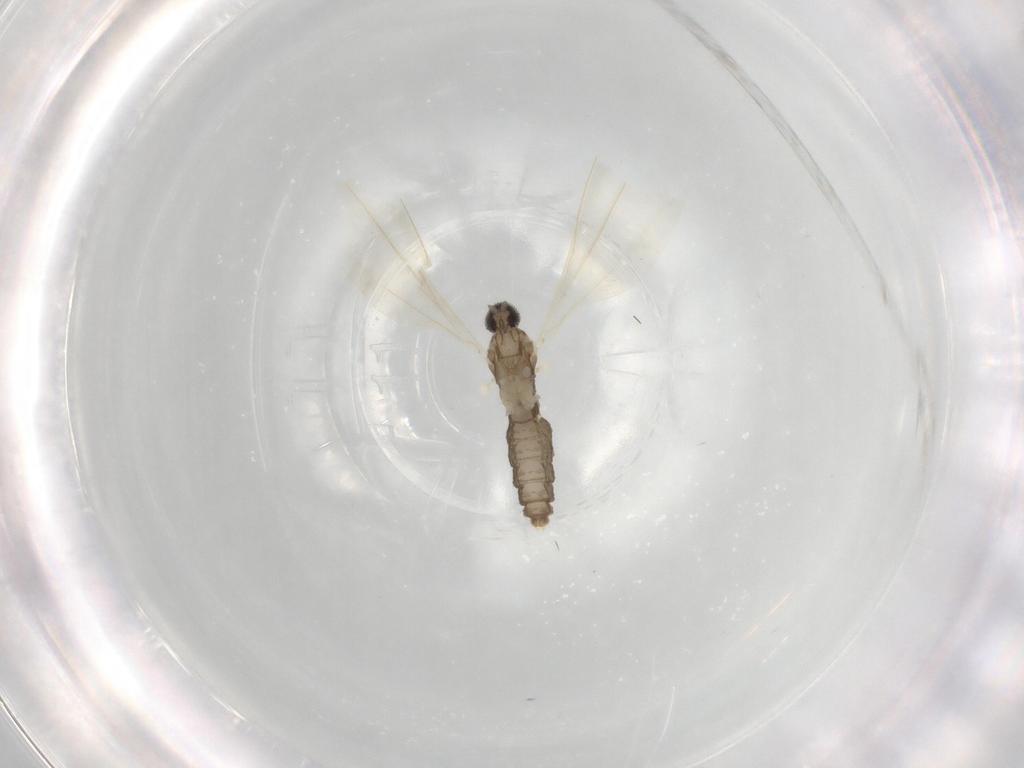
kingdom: Animalia
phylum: Arthropoda
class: Insecta
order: Diptera
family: Cecidomyiidae
